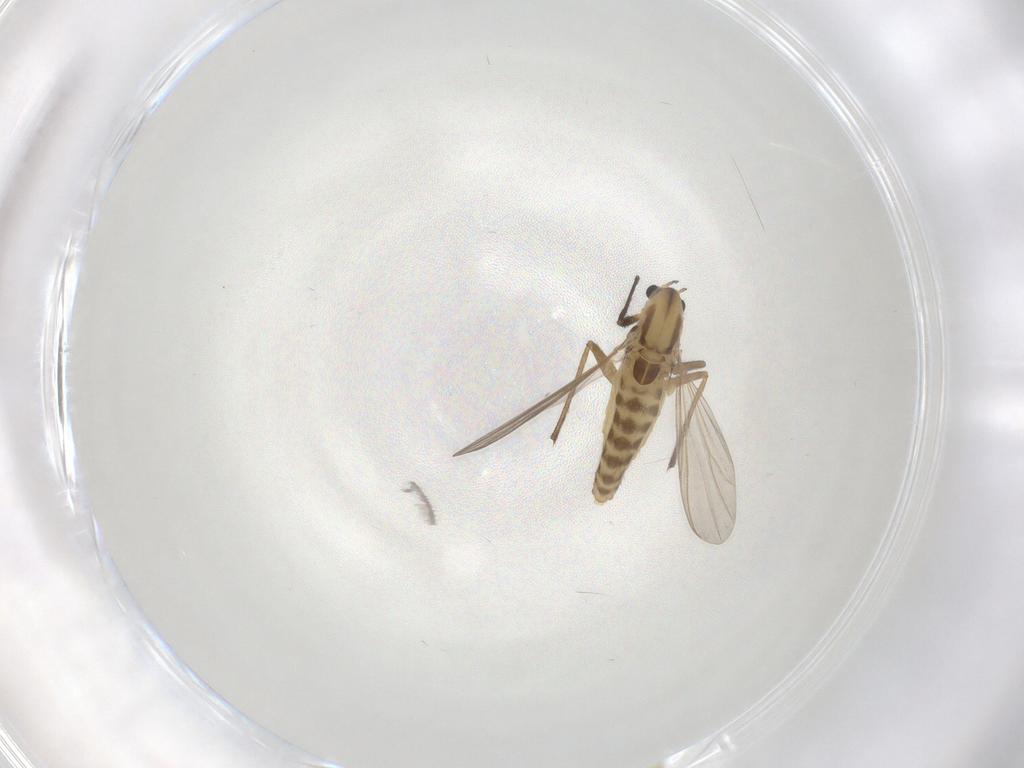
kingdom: Animalia
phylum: Arthropoda
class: Insecta
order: Diptera
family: Chironomidae
